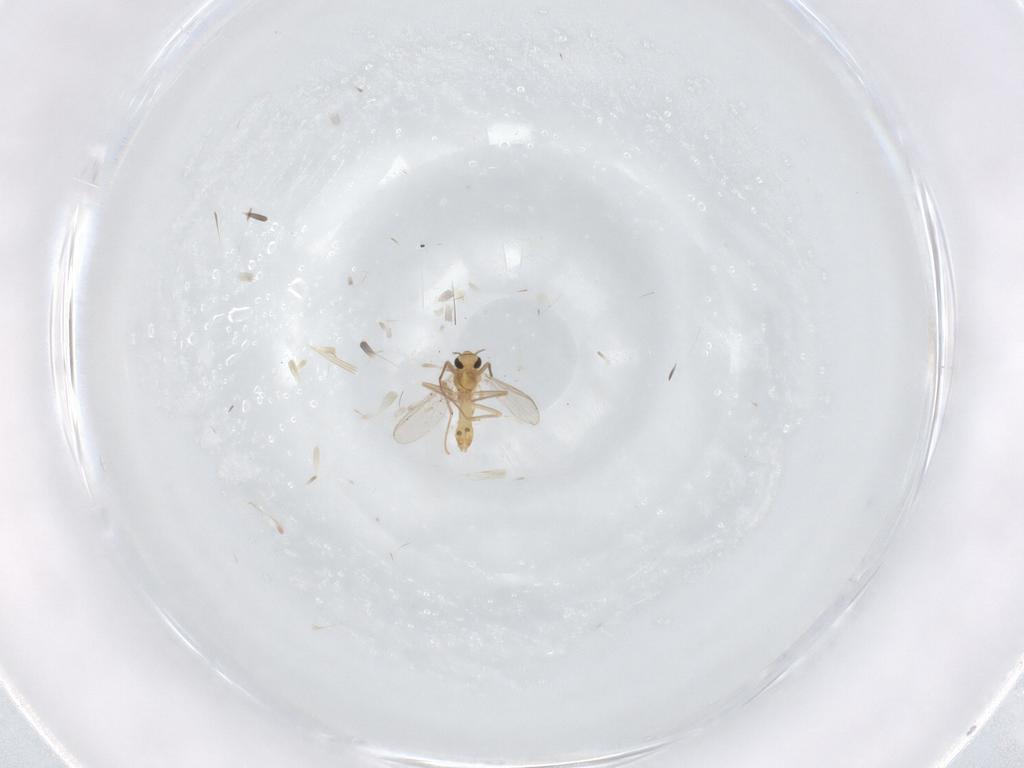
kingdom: Animalia
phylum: Arthropoda
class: Insecta
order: Diptera
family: Chironomidae
